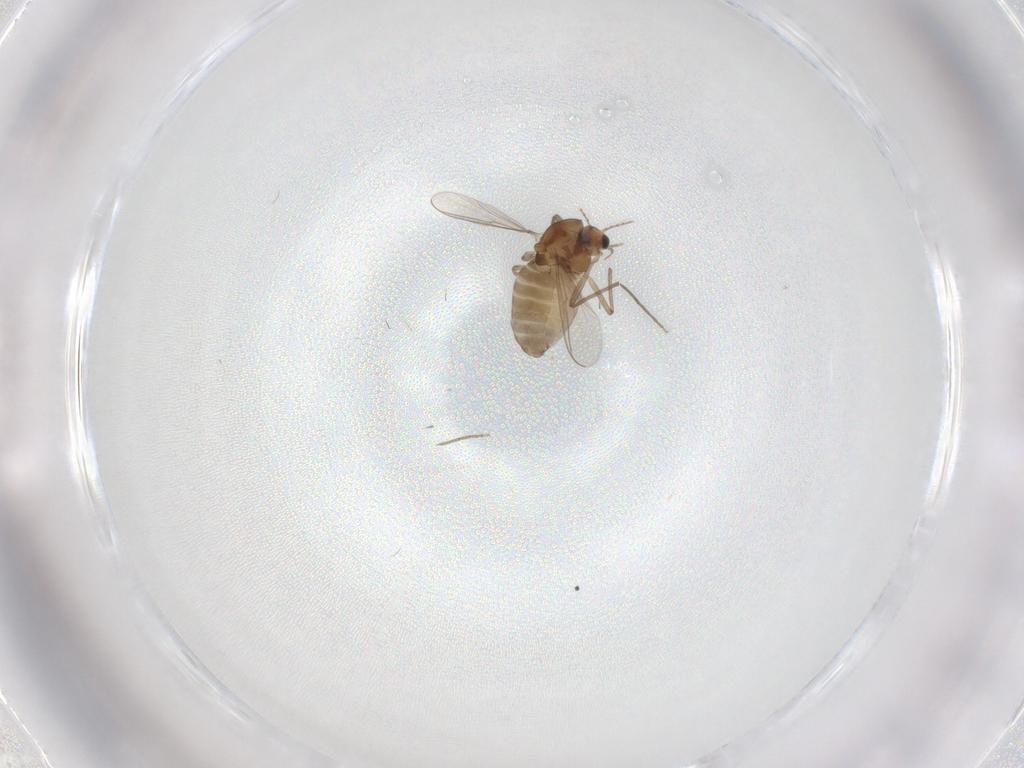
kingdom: Animalia
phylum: Arthropoda
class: Insecta
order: Diptera
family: Chironomidae
